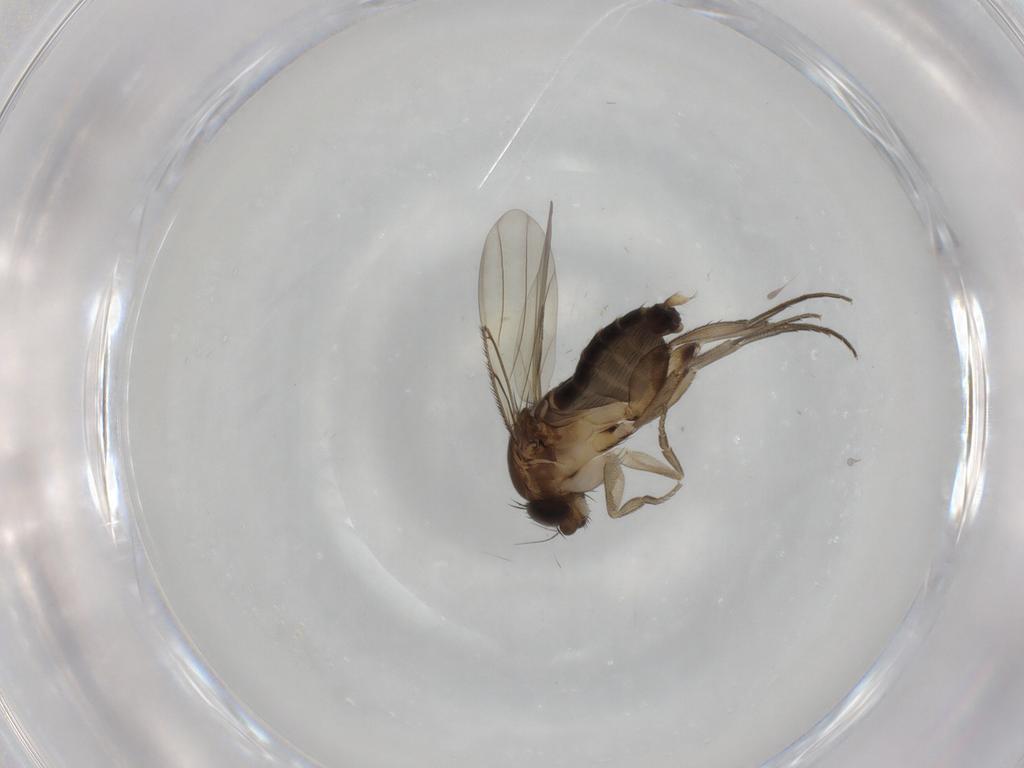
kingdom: Animalia
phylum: Arthropoda
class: Insecta
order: Diptera
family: Phoridae
